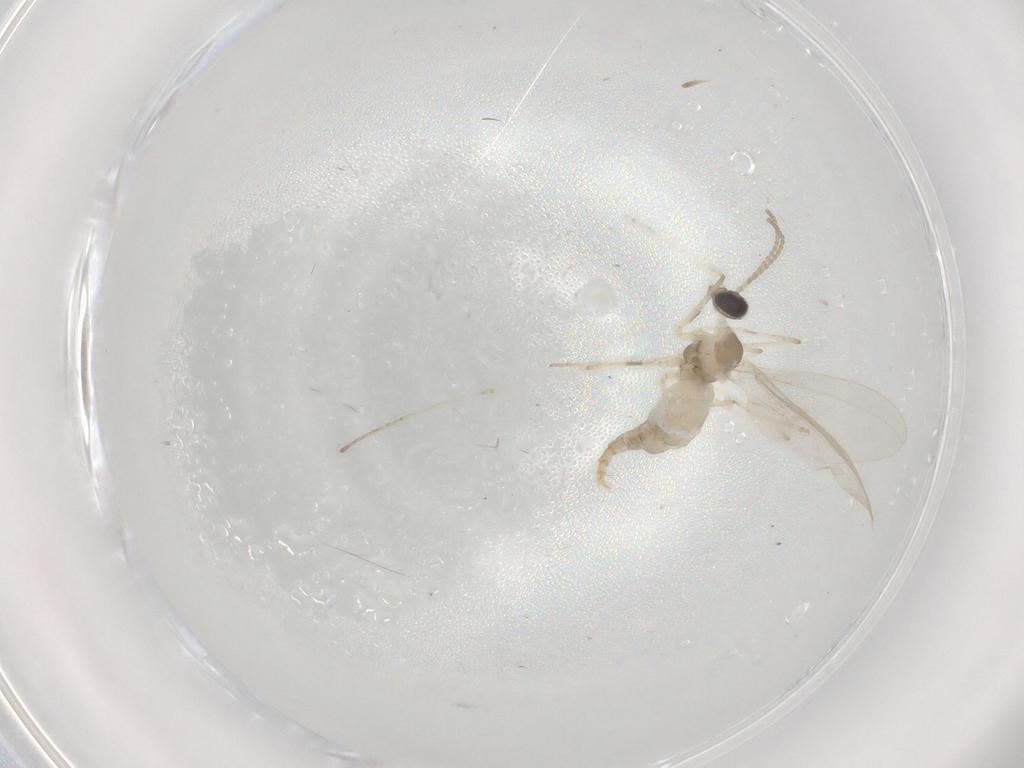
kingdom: Animalia
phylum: Arthropoda
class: Insecta
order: Diptera
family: Cecidomyiidae
